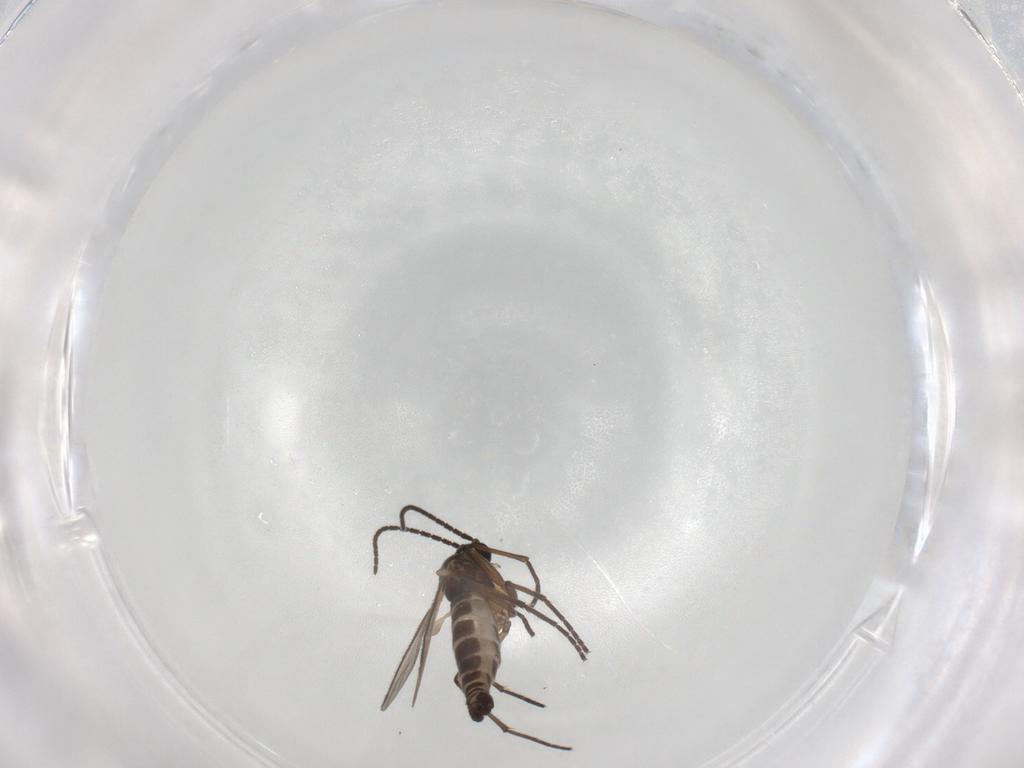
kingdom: Animalia
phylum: Arthropoda
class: Insecta
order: Diptera
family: Sciaridae
